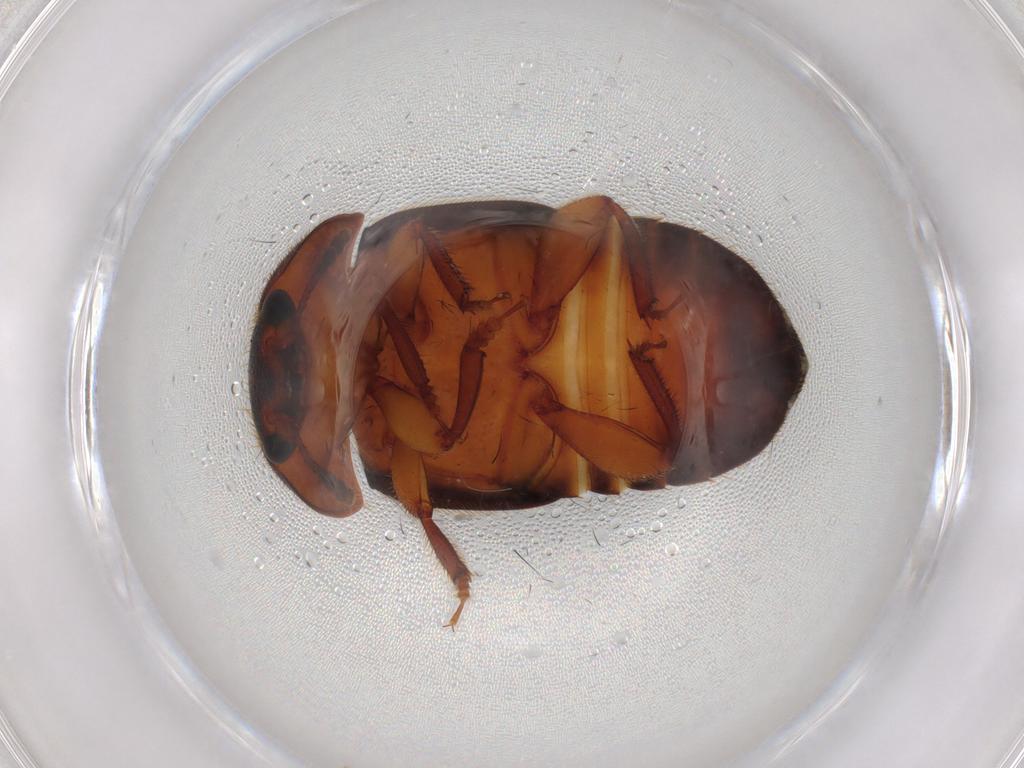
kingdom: Animalia
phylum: Arthropoda
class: Insecta
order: Coleoptera
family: Nitidulidae
